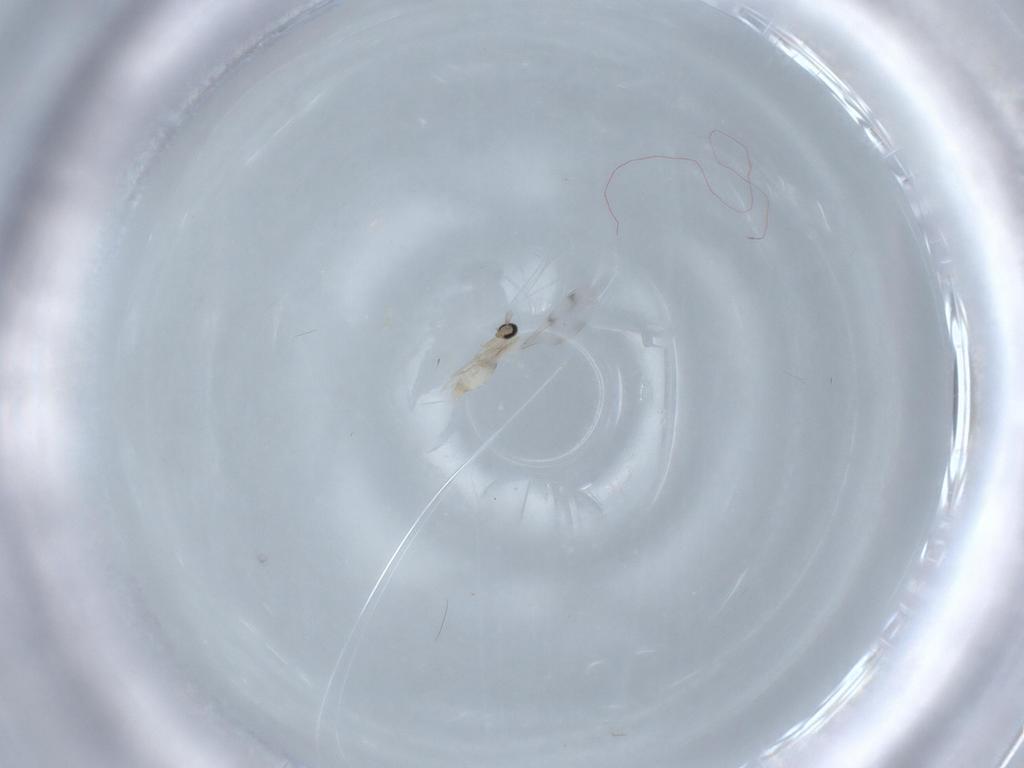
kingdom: Animalia
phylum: Arthropoda
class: Insecta
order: Diptera
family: Cecidomyiidae
